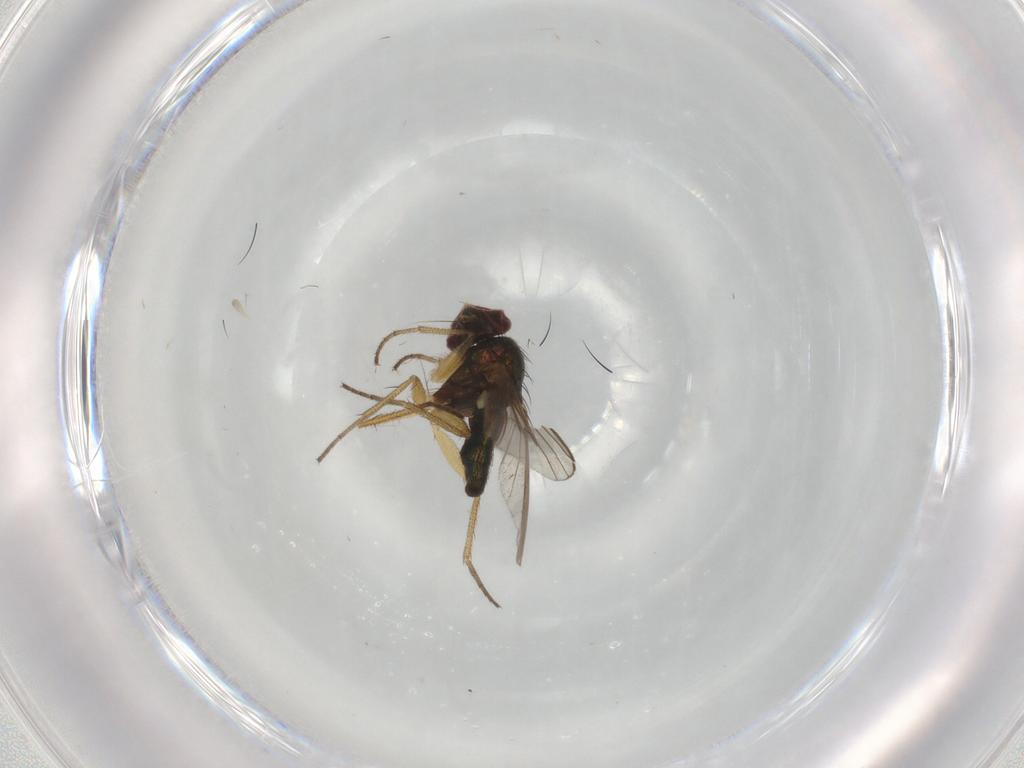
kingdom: Animalia
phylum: Arthropoda
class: Insecta
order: Diptera
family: Dolichopodidae
